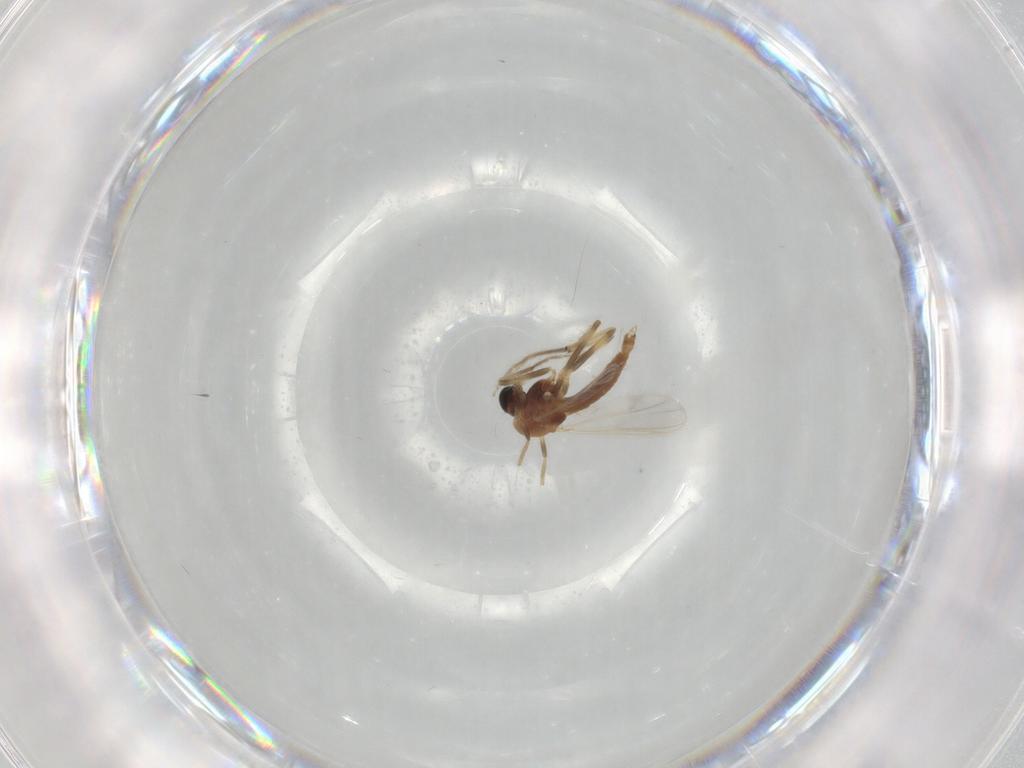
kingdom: Animalia
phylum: Arthropoda
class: Insecta
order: Diptera
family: Chironomidae
